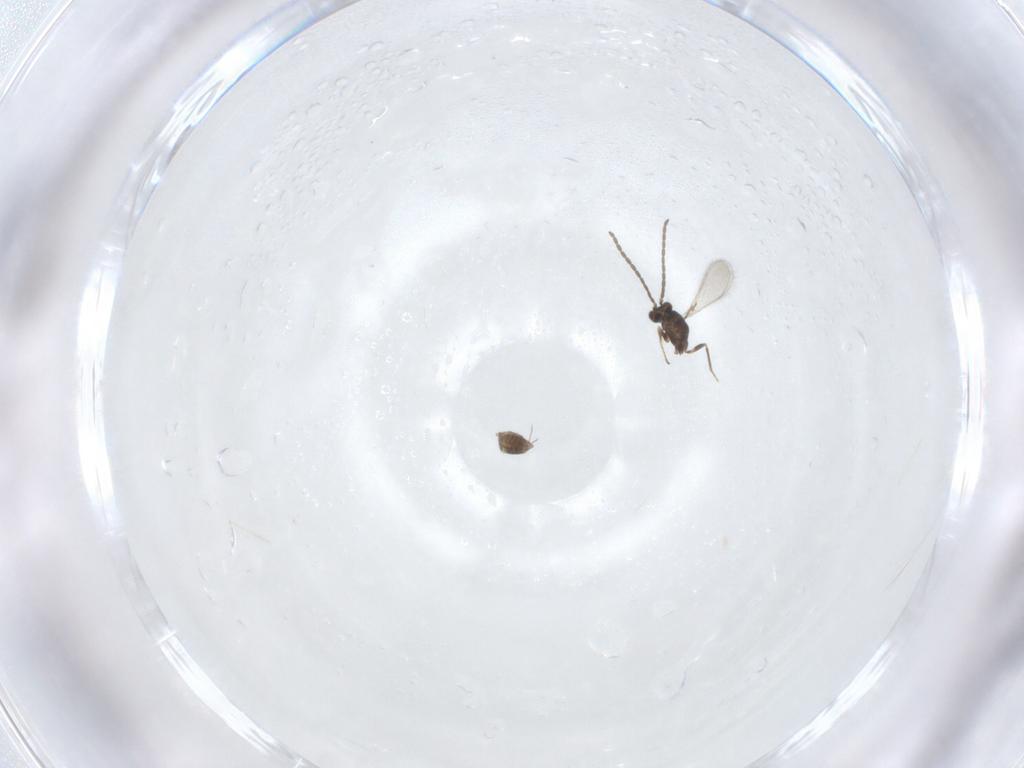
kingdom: Animalia
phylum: Arthropoda
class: Insecta
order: Hymenoptera
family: Mymaridae
